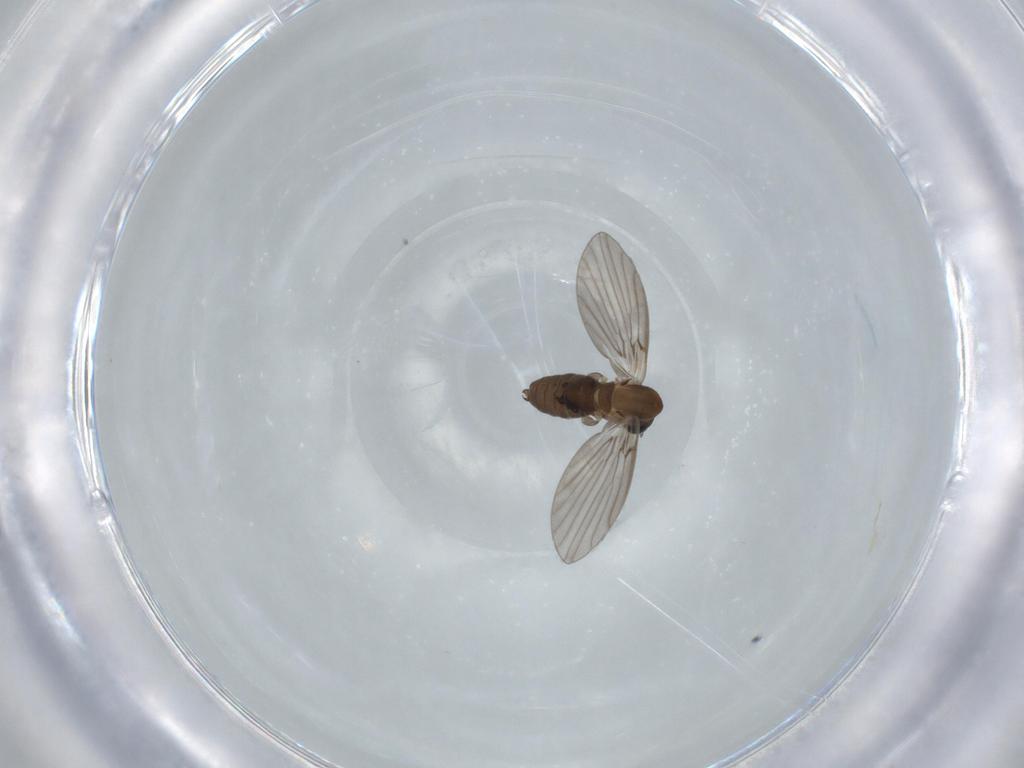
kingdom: Animalia
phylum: Arthropoda
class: Insecta
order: Diptera
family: Psychodidae
